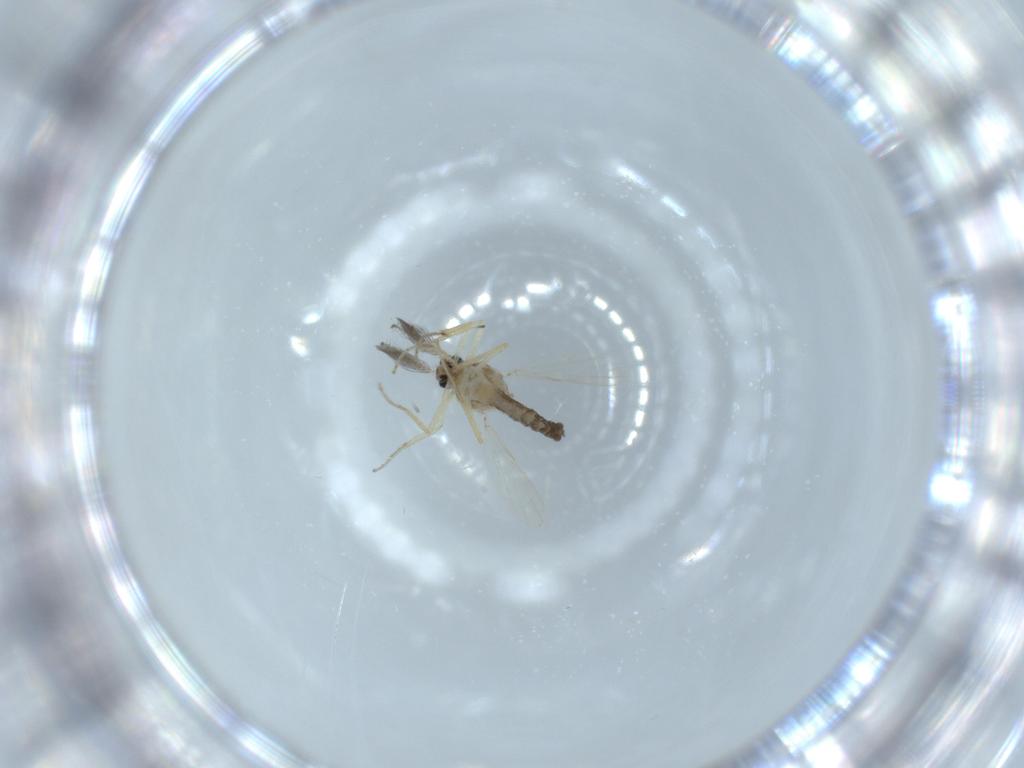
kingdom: Animalia
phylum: Arthropoda
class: Insecta
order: Diptera
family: Ceratopogonidae
